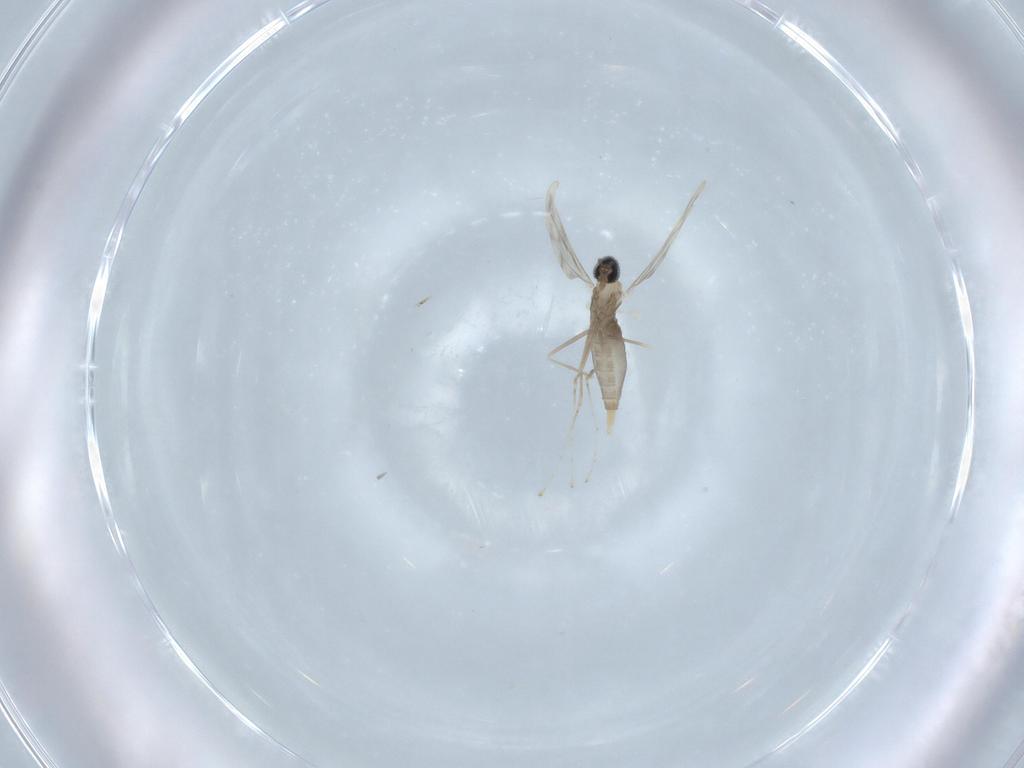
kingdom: Animalia
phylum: Arthropoda
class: Insecta
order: Diptera
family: Cecidomyiidae
